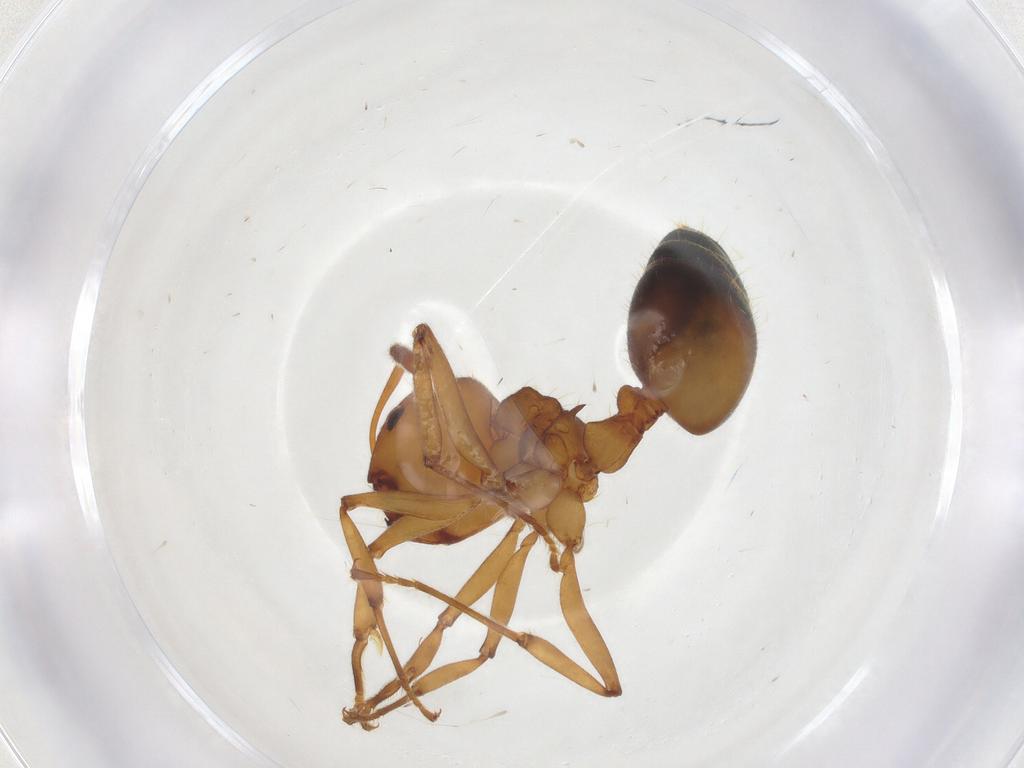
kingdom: Animalia
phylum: Arthropoda
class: Insecta
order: Hymenoptera
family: Formicidae
